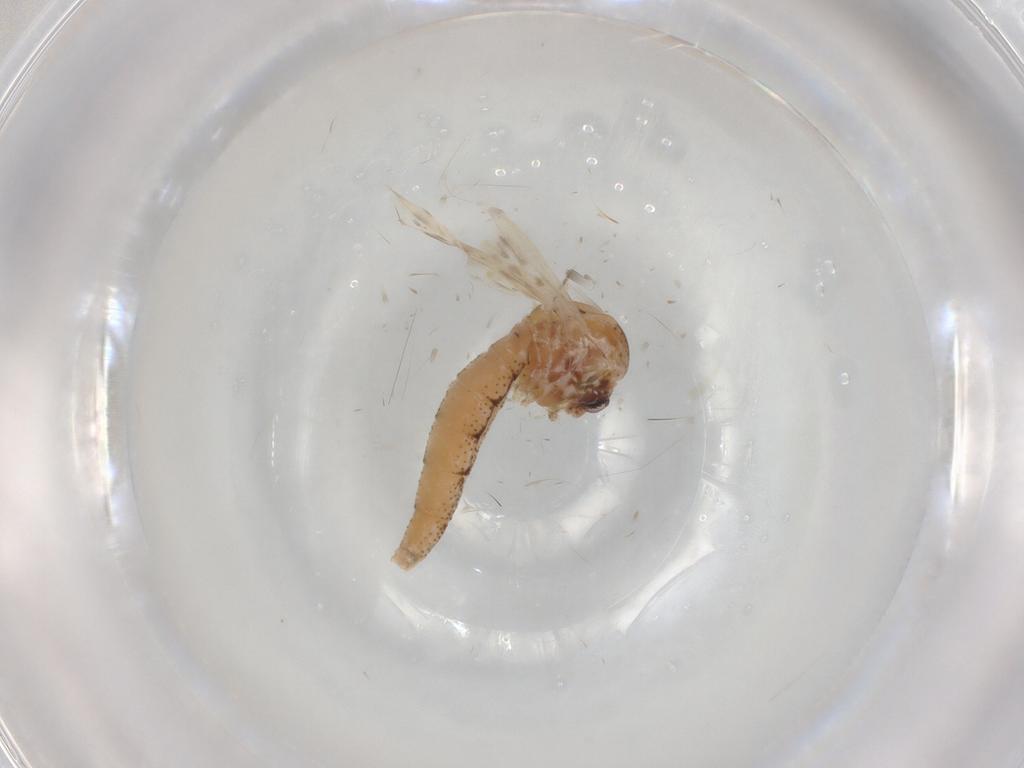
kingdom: Animalia
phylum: Arthropoda
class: Insecta
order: Diptera
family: Chaoboridae
